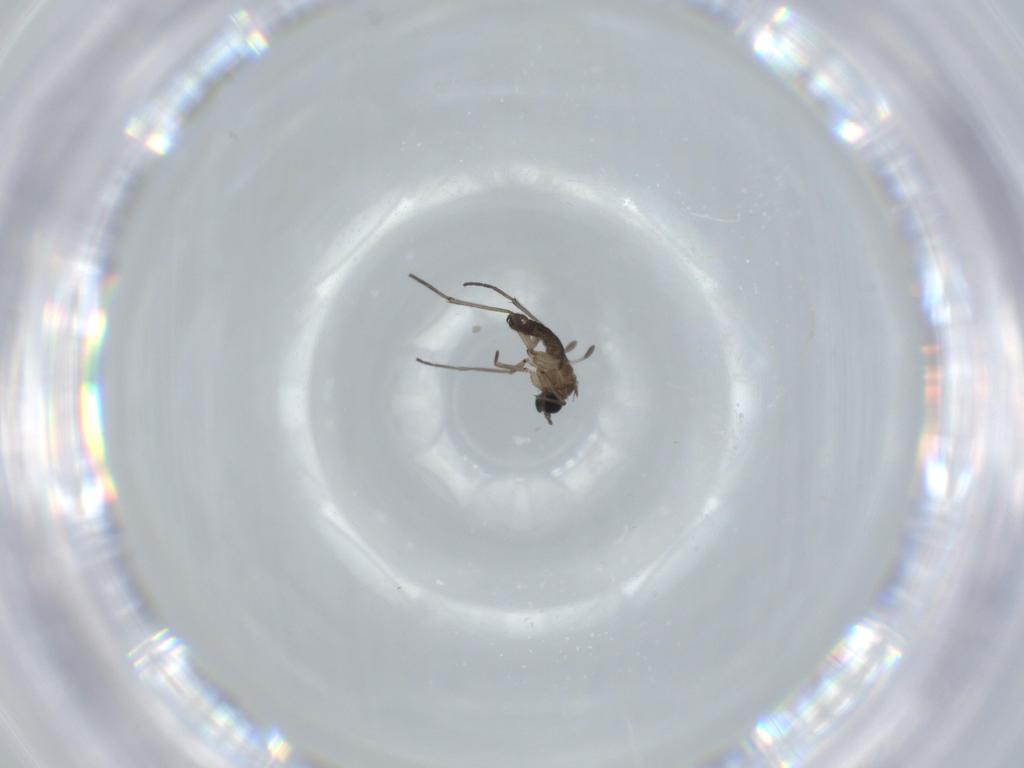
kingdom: Animalia
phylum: Arthropoda
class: Insecta
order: Diptera
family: Sciaridae
